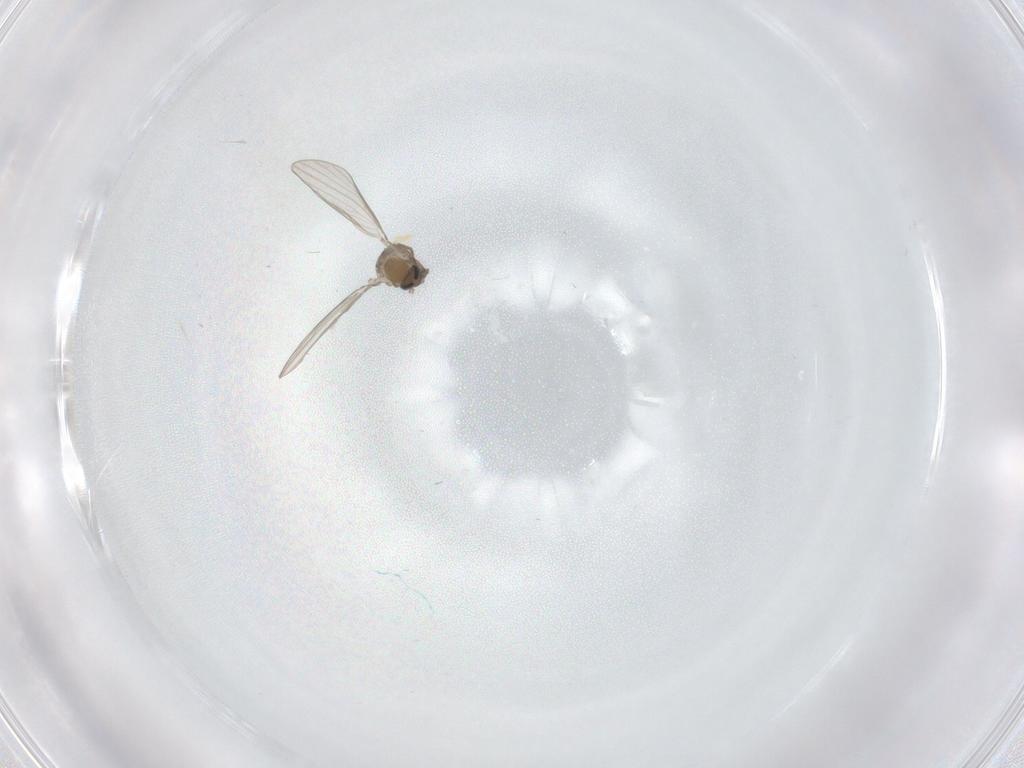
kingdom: Animalia
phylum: Arthropoda
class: Insecta
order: Diptera
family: Psychodidae
